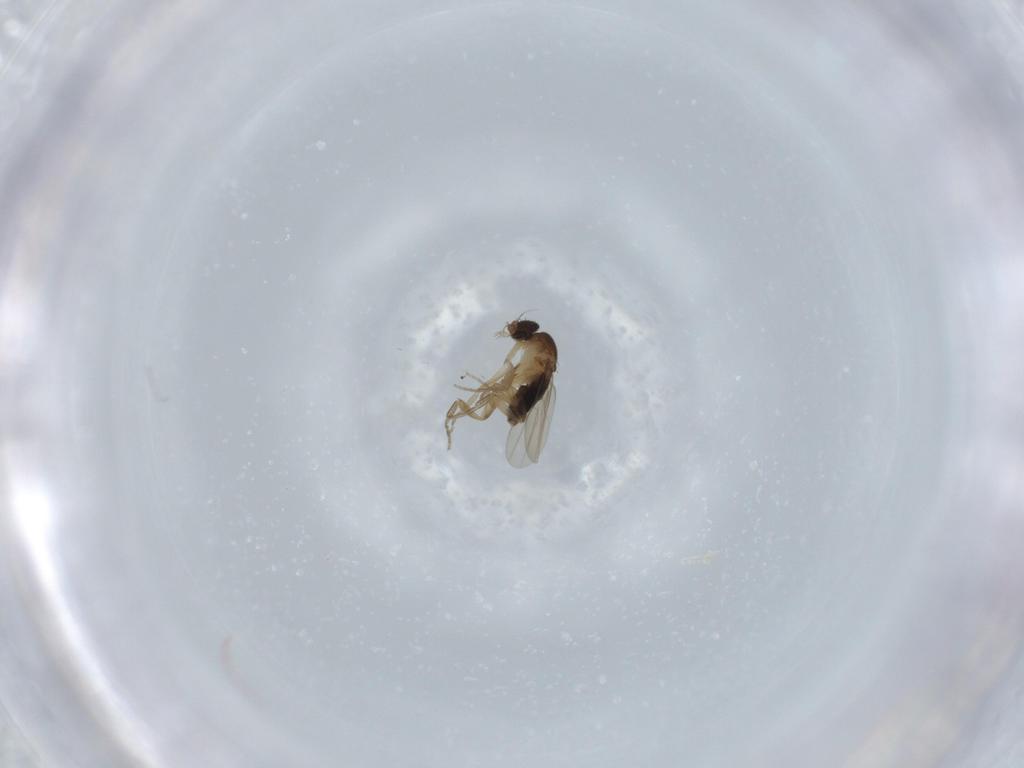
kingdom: Animalia
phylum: Arthropoda
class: Insecta
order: Diptera
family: Phoridae
